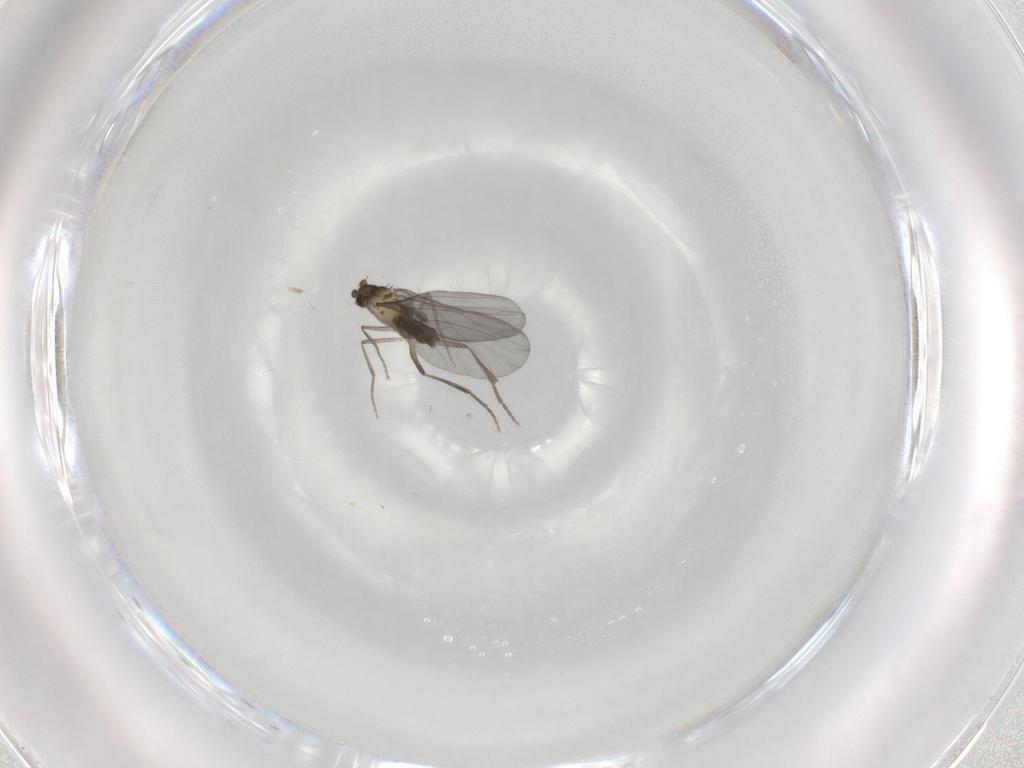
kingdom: Animalia
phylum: Arthropoda
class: Insecta
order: Diptera
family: Phoridae
